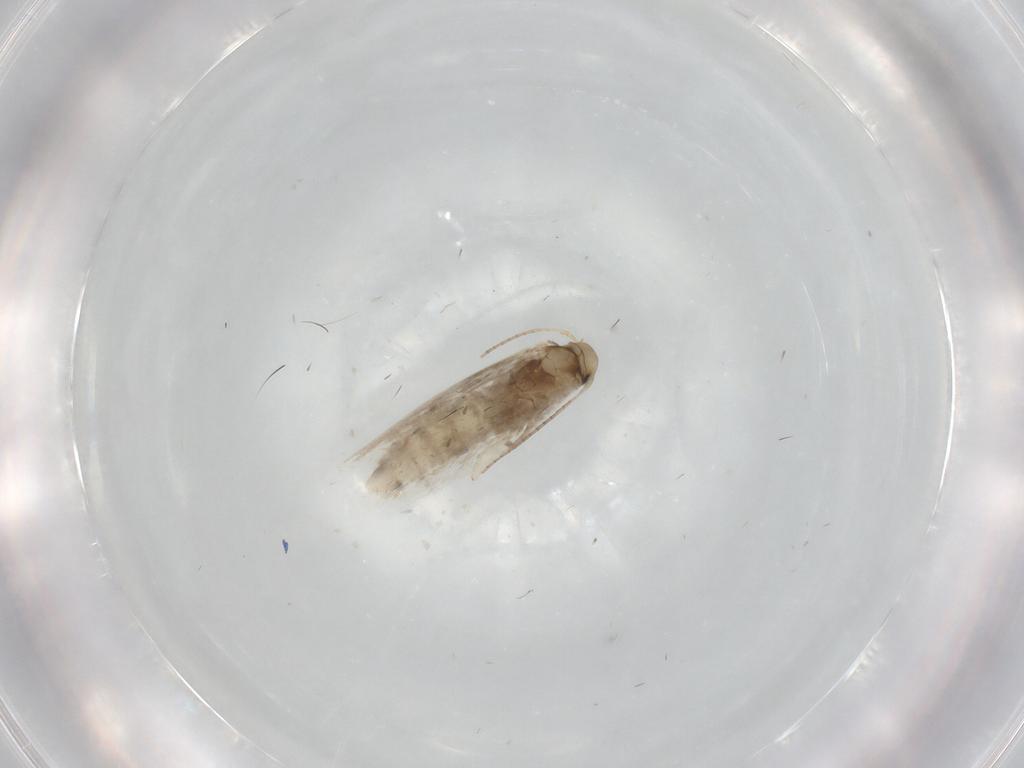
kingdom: Animalia
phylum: Arthropoda
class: Insecta
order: Lepidoptera
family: Gracillariidae
